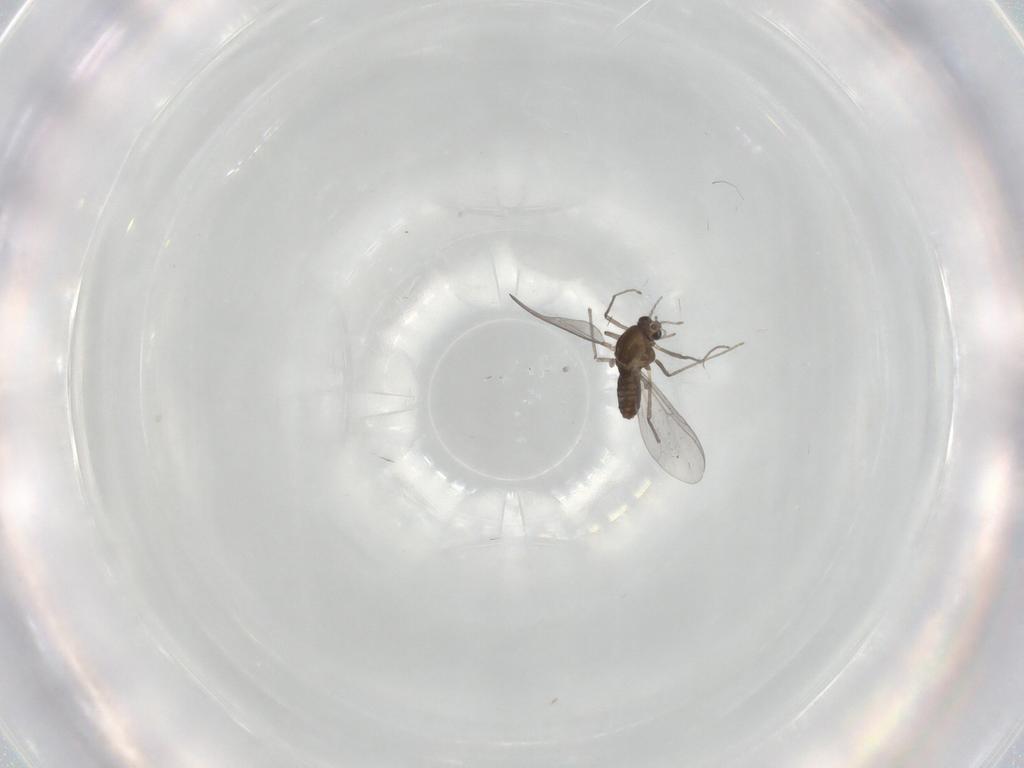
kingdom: Animalia
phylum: Arthropoda
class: Insecta
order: Diptera
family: Chironomidae
